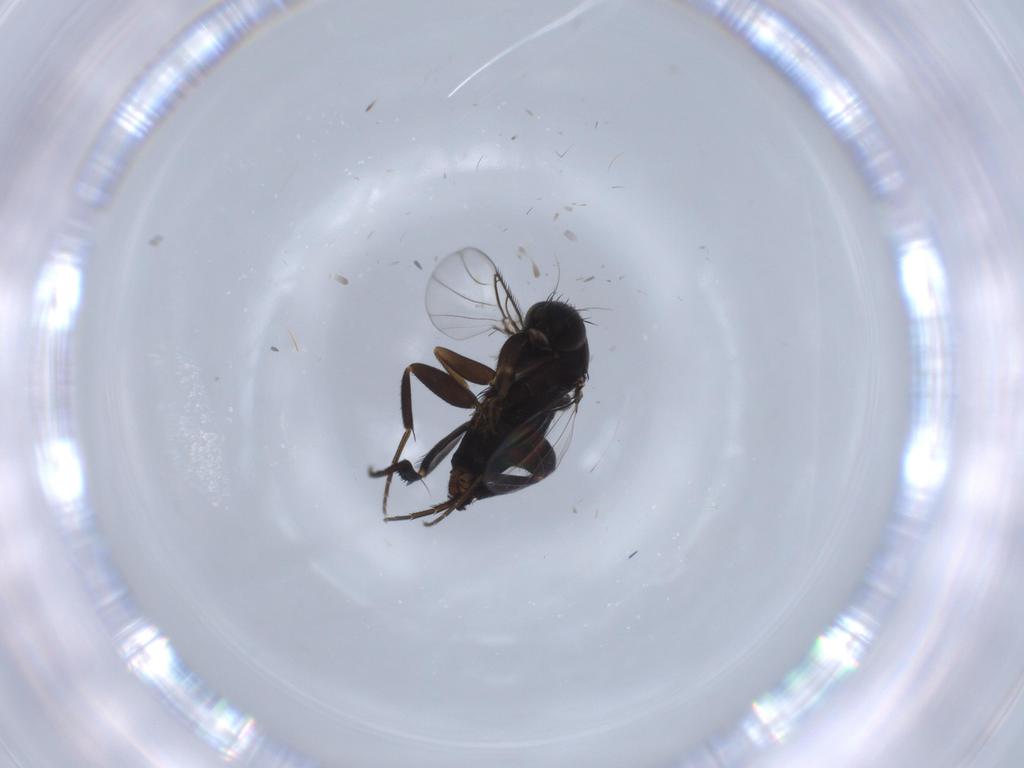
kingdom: Animalia
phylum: Arthropoda
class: Insecta
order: Diptera
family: Phoridae
